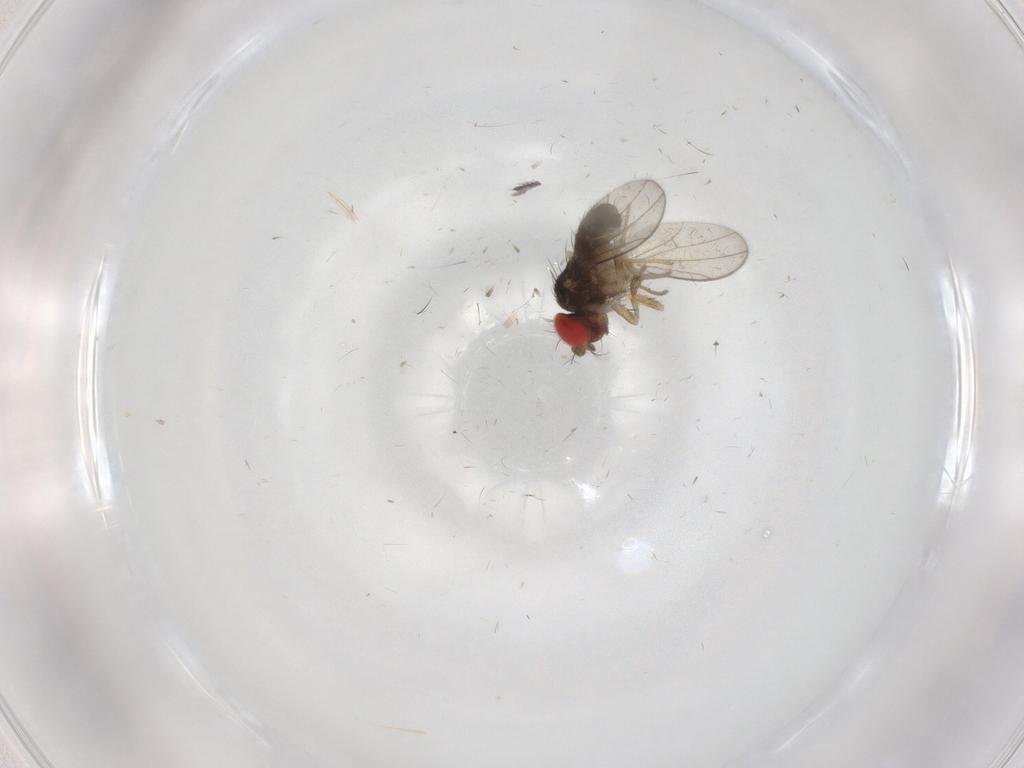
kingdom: Animalia
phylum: Arthropoda
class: Insecta
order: Diptera
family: Drosophilidae
